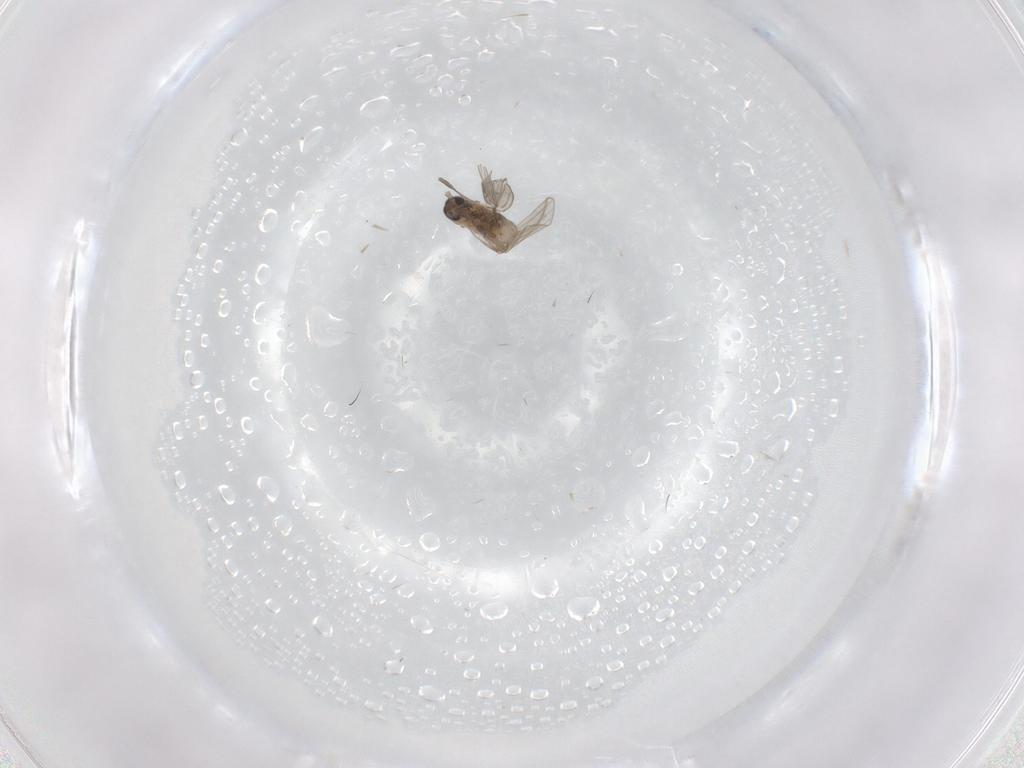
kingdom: Animalia
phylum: Arthropoda
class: Insecta
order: Diptera
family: Psychodidae
